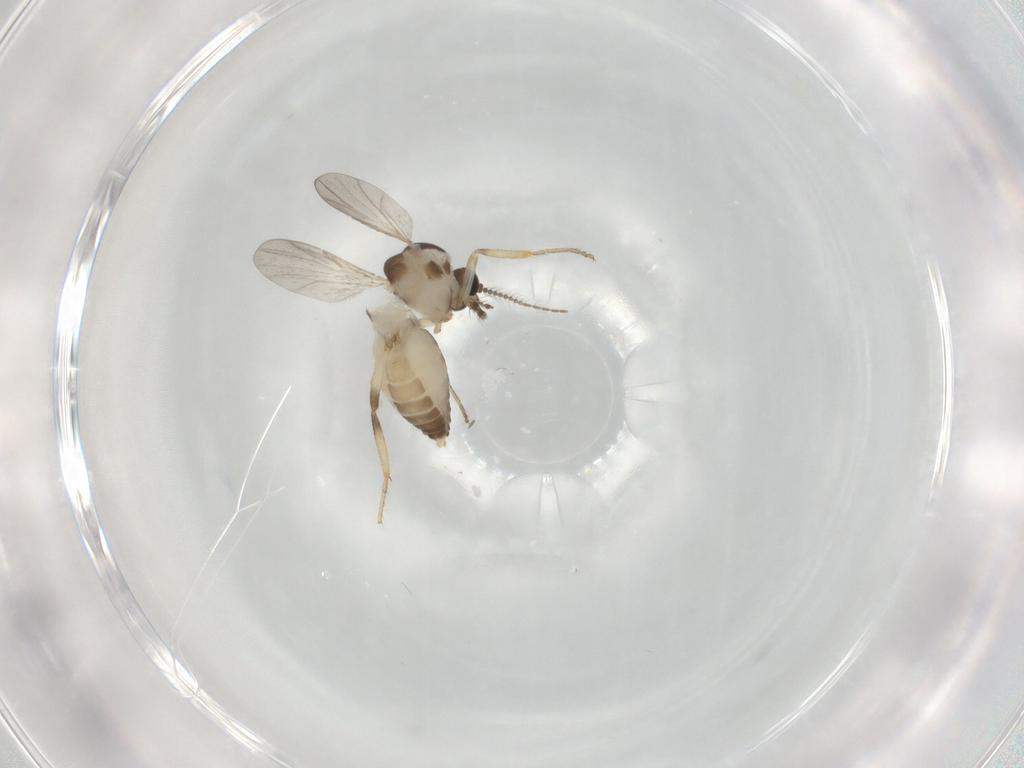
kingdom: Animalia
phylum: Arthropoda
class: Insecta
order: Diptera
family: Ceratopogonidae
